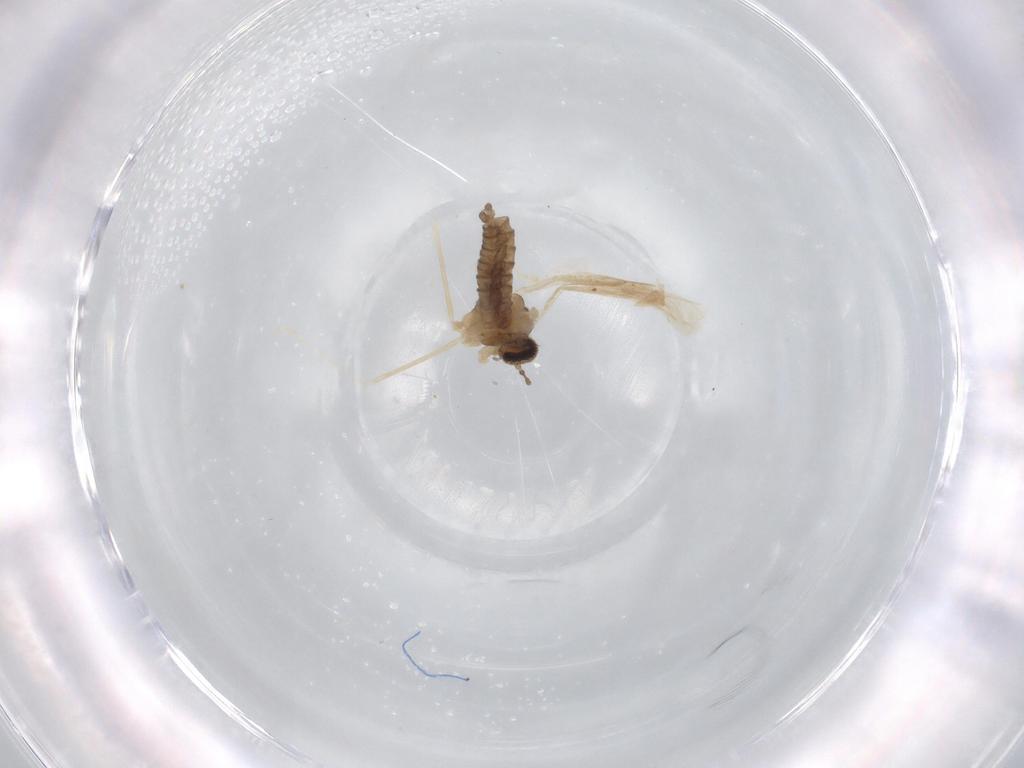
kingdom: Animalia
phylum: Arthropoda
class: Insecta
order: Diptera
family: Cecidomyiidae
